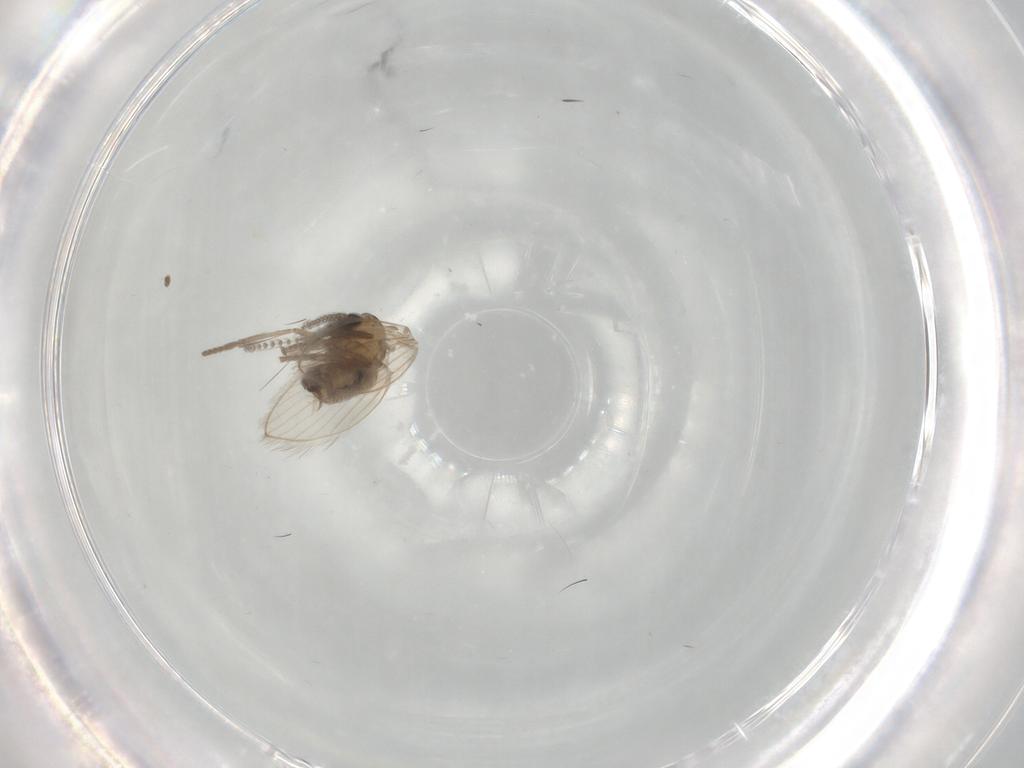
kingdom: Animalia
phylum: Arthropoda
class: Insecta
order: Diptera
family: Psychodidae
